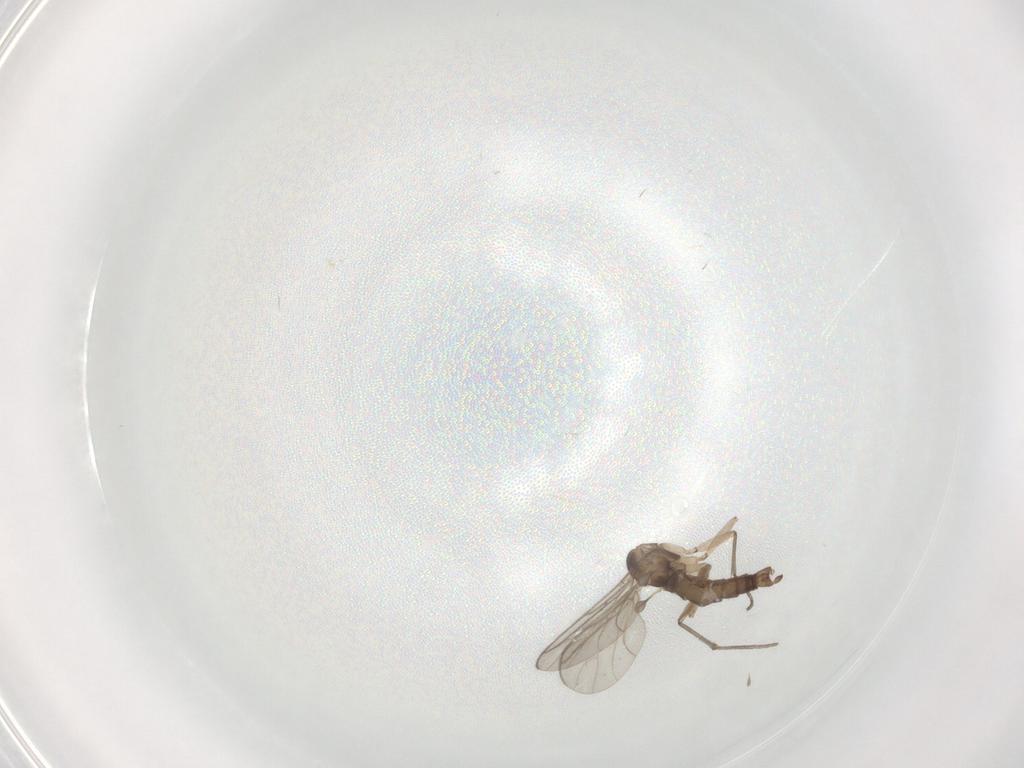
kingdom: Animalia
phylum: Arthropoda
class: Insecta
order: Diptera
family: Sciaridae
